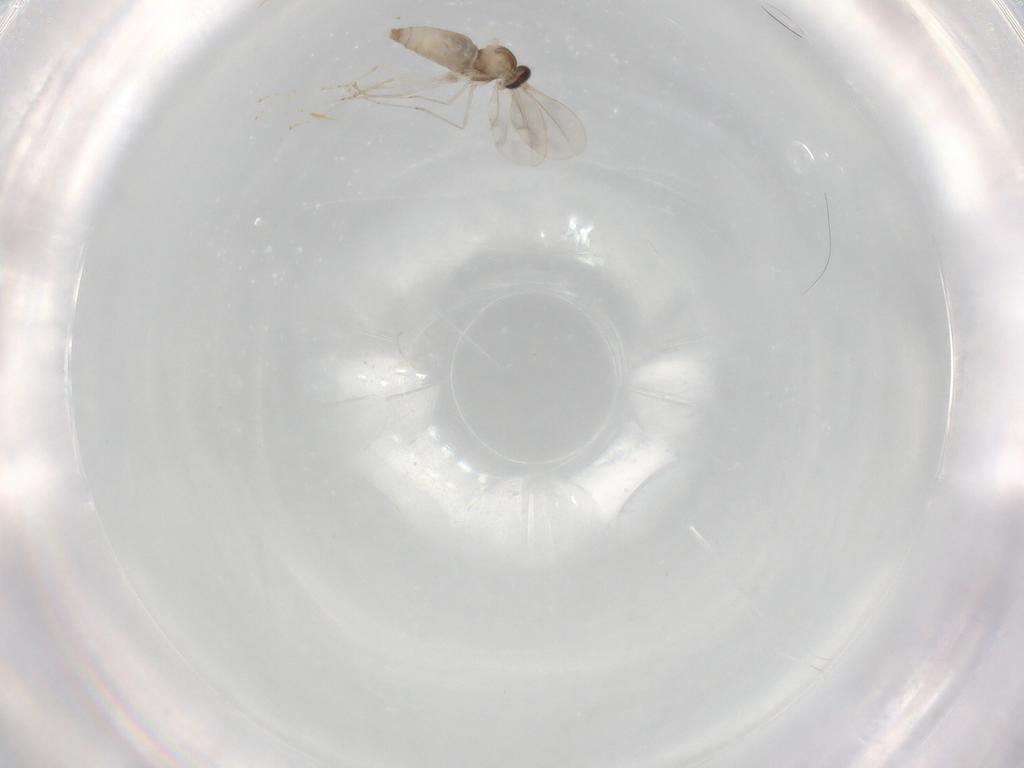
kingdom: Animalia
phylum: Arthropoda
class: Insecta
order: Diptera
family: Cecidomyiidae
